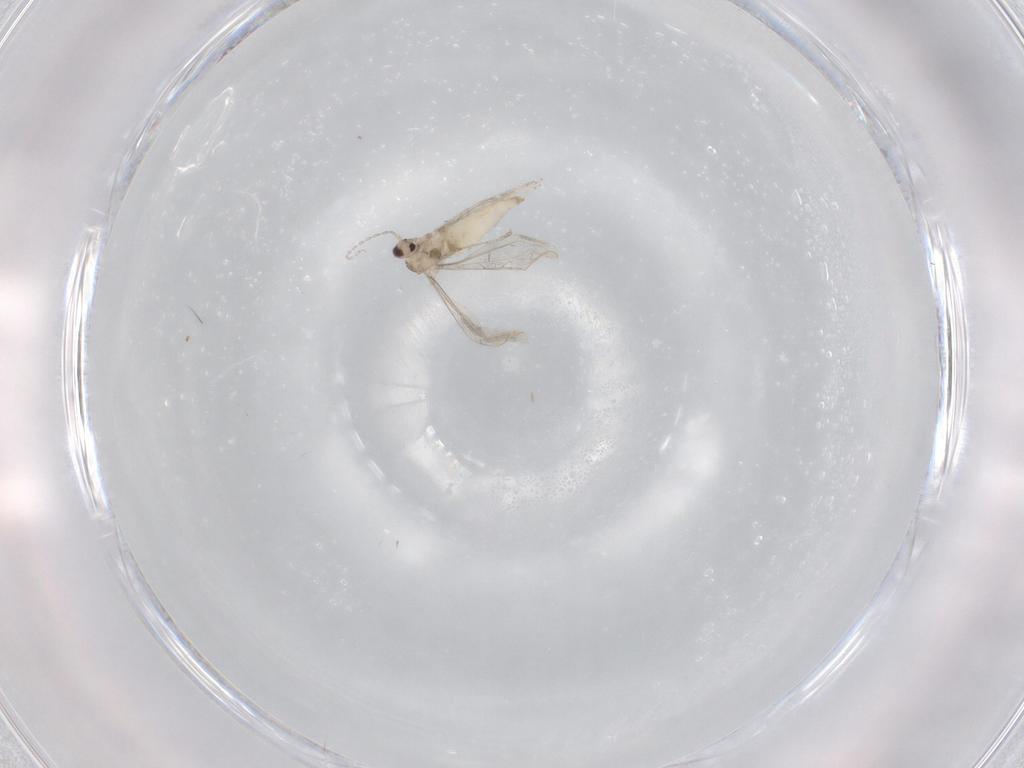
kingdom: Animalia
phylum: Arthropoda
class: Insecta
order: Diptera
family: Cecidomyiidae
